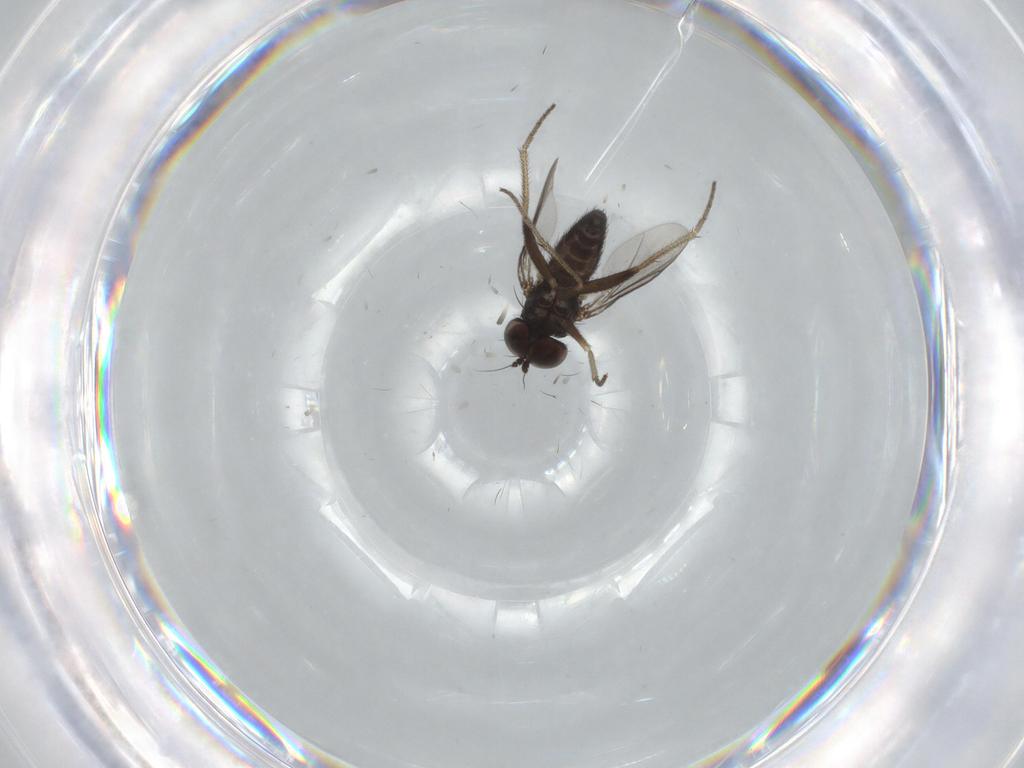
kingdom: Animalia
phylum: Arthropoda
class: Insecta
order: Diptera
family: Dolichopodidae
